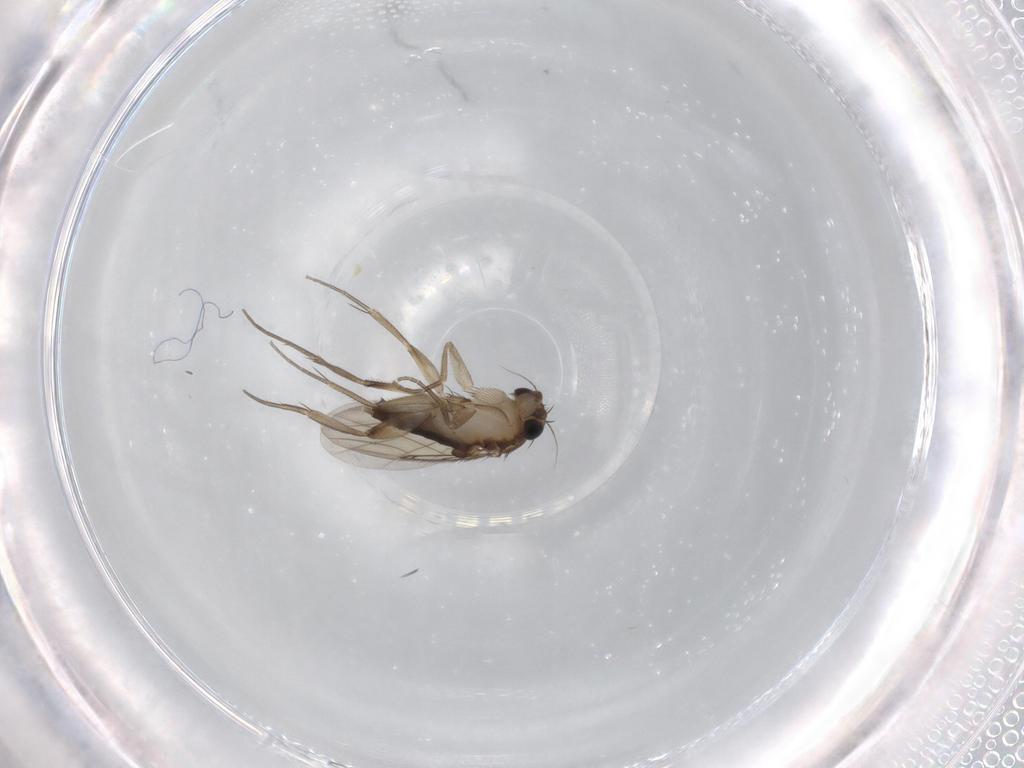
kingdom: Animalia
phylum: Arthropoda
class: Insecta
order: Diptera
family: Phoridae
